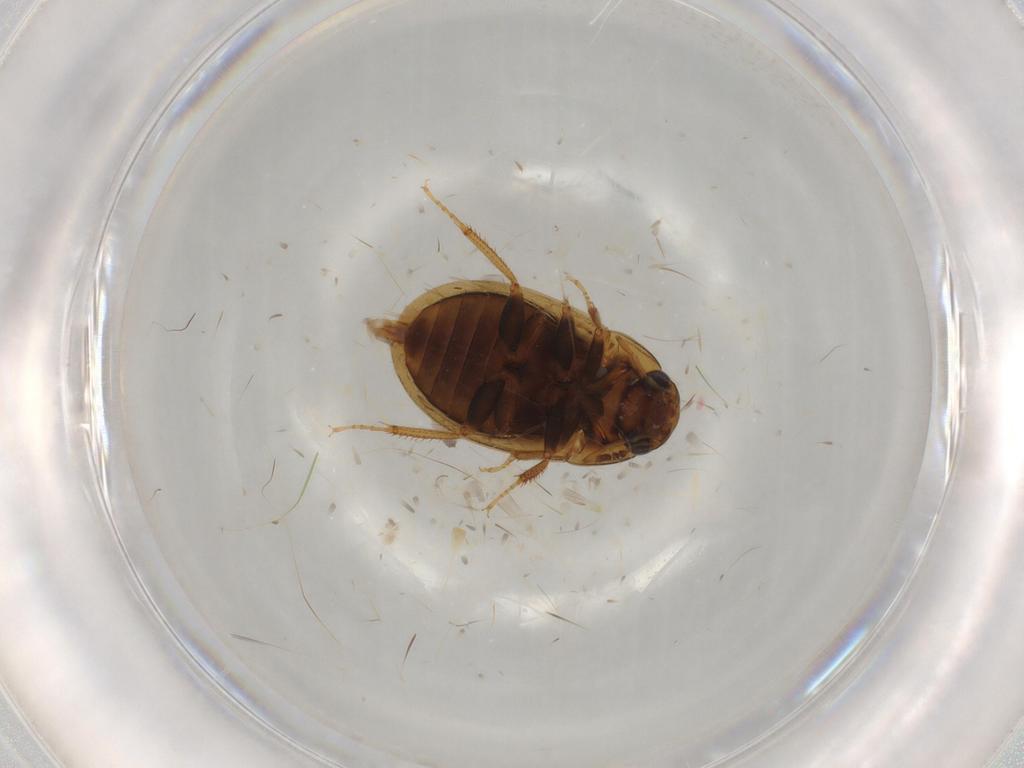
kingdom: Animalia
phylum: Arthropoda
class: Insecta
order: Coleoptera
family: Hydrophilidae
